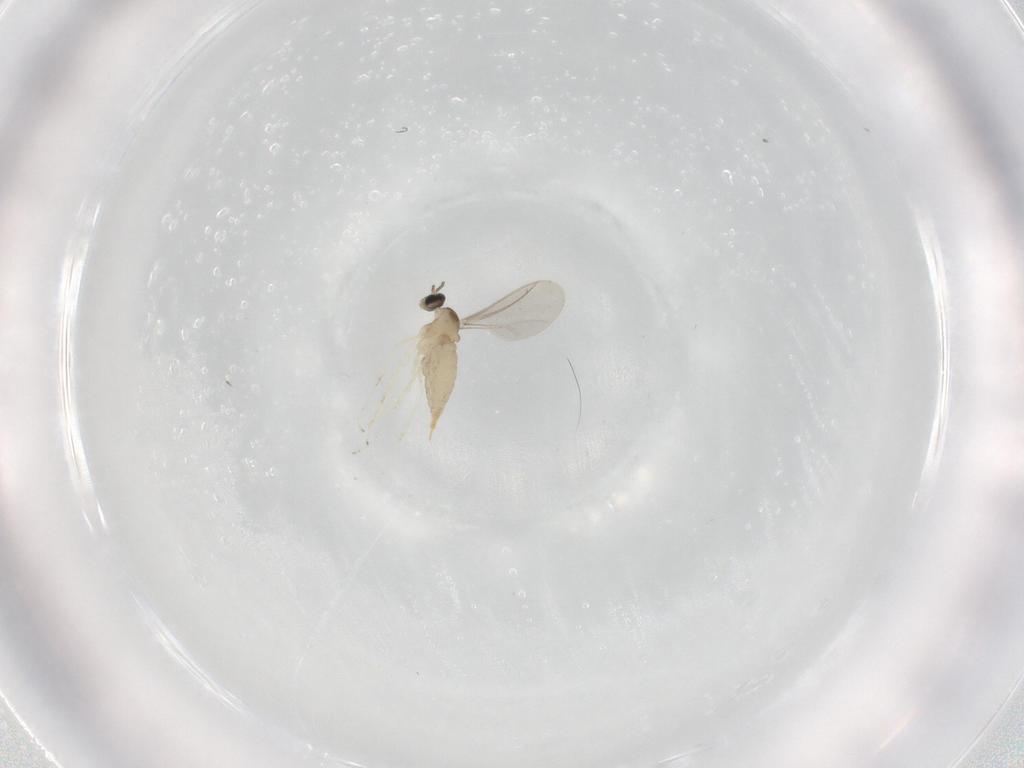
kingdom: Animalia
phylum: Arthropoda
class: Insecta
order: Diptera
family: Cecidomyiidae
